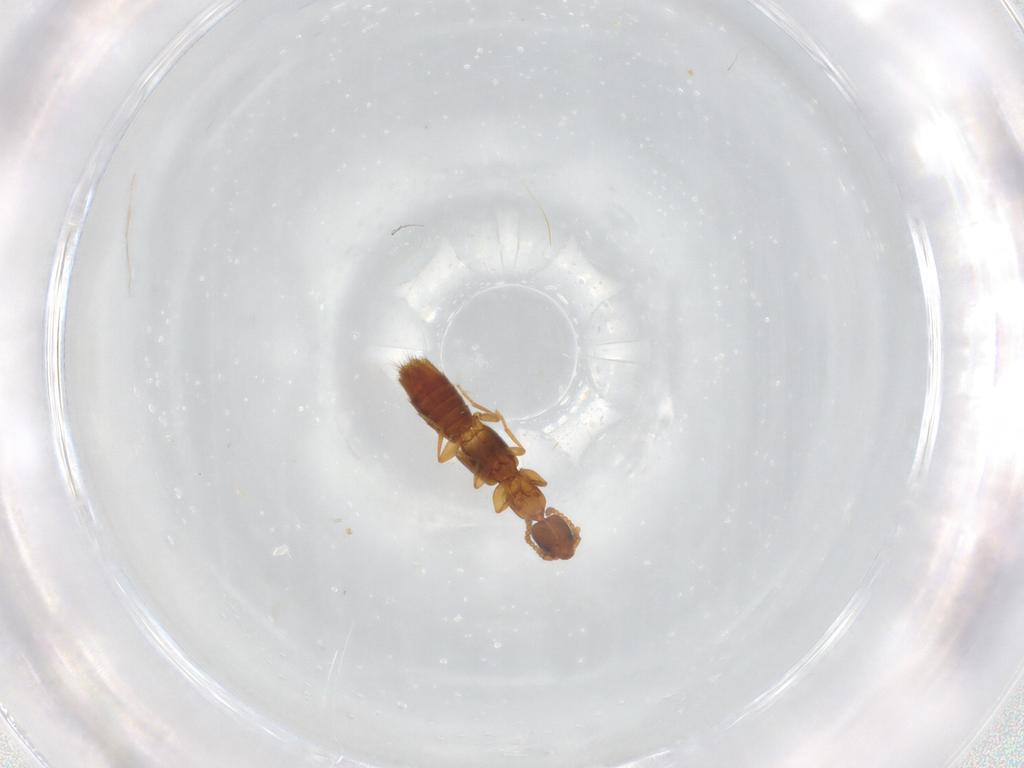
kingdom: Animalia
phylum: Arthropoda
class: Insecta
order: Coleoptera
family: Staphylinidae
